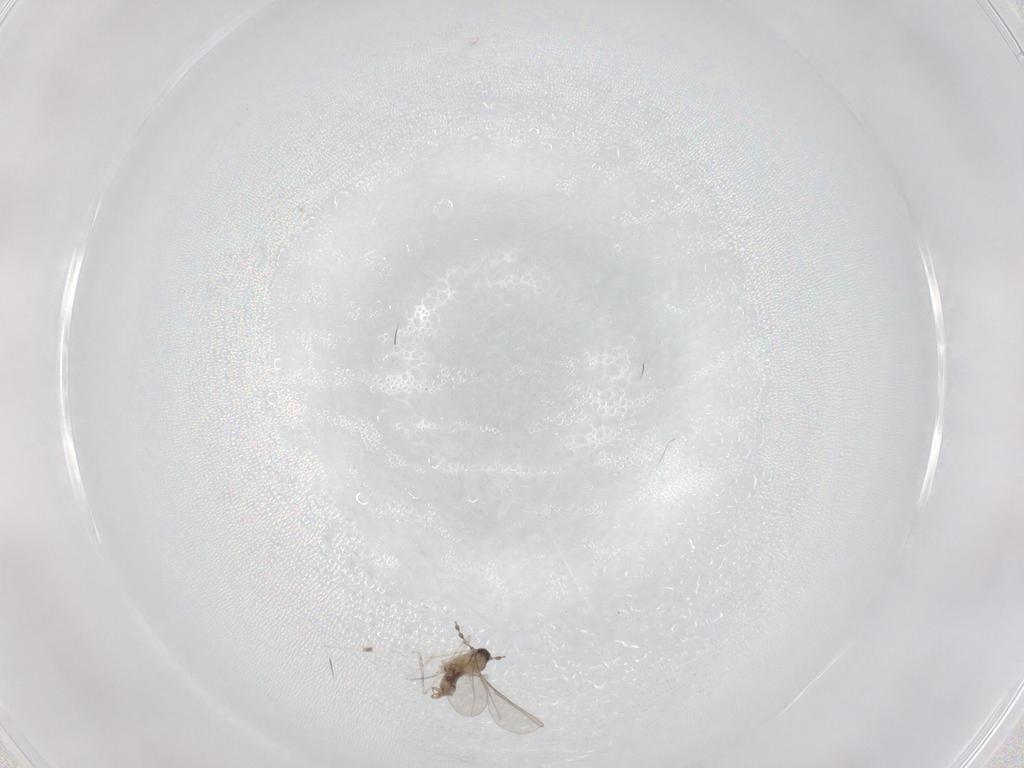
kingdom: Animalia
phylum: Arthropoda
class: Insecta
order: Diptera
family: Cecidomyiidae
